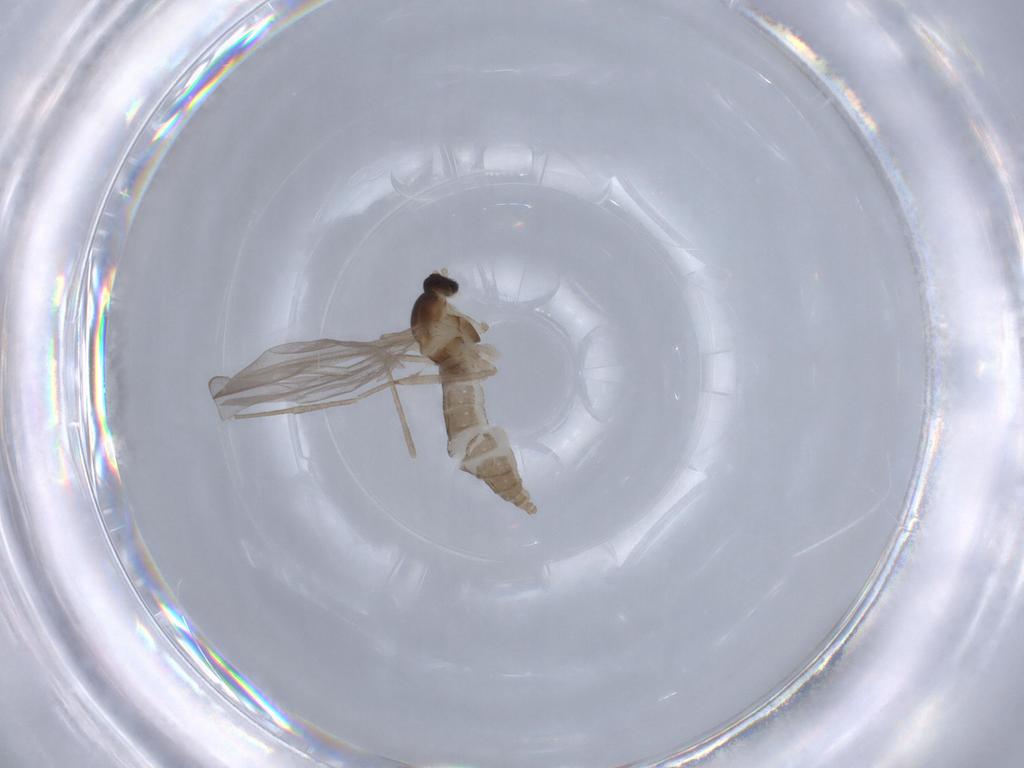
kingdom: Animalia
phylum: Arthropoda
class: Insecta
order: Diptera
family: Cecidomyiidae
